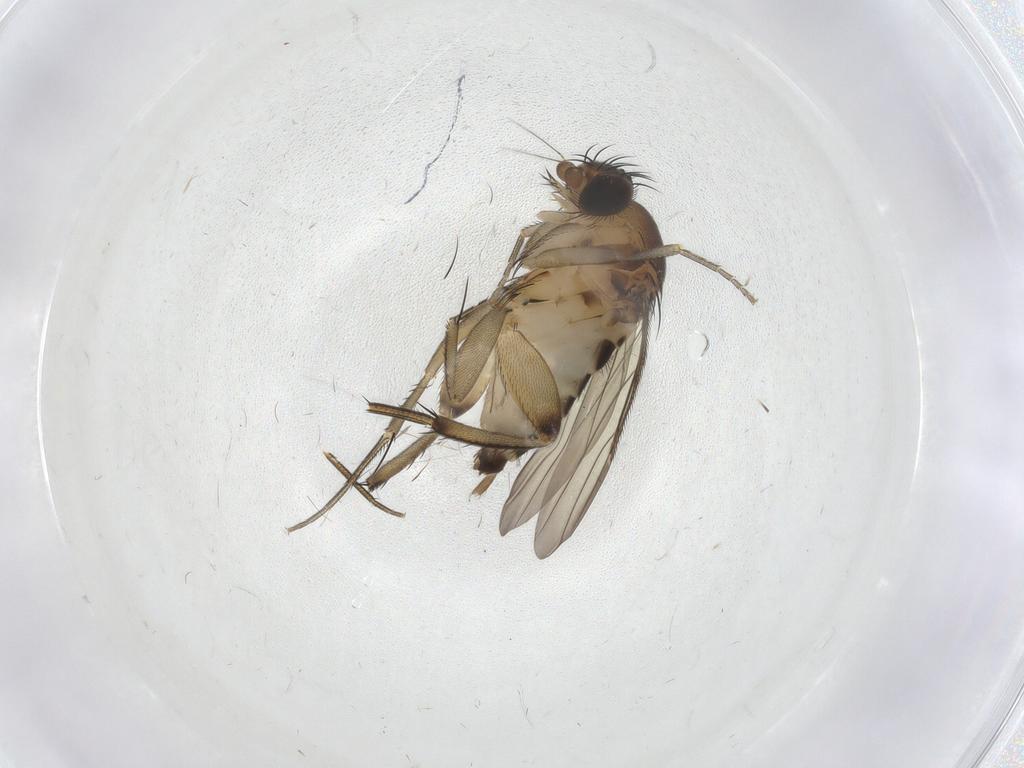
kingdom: Animalia
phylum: Arthropoda
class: Insecta
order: Diptera
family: Phoridae
